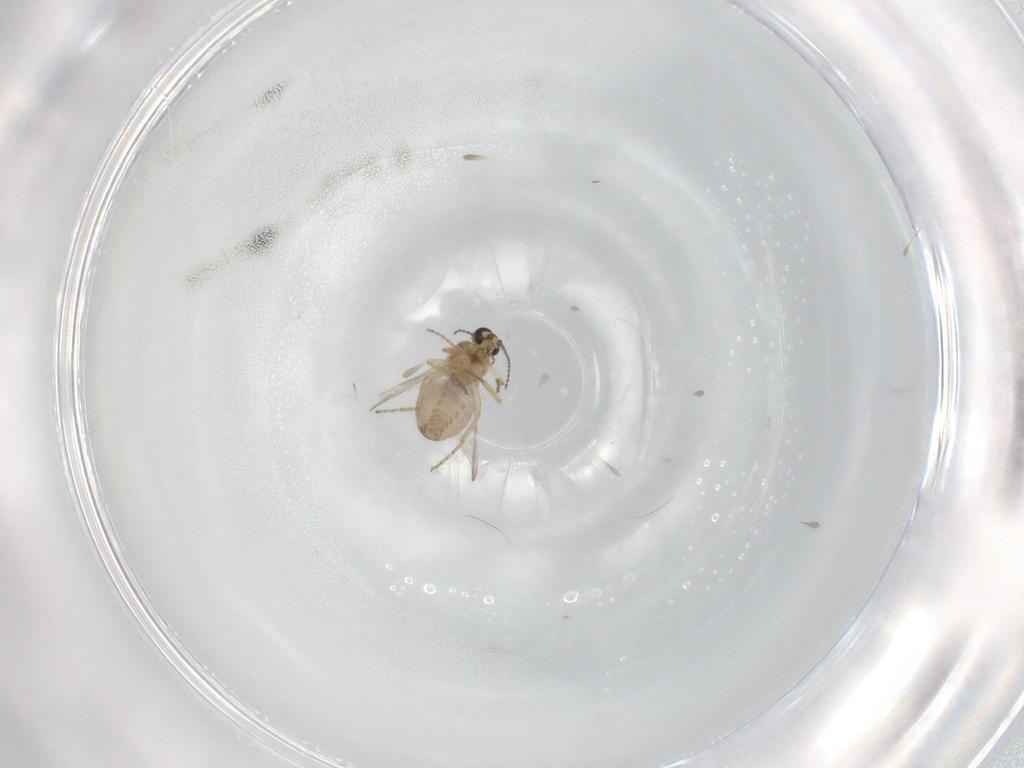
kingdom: Animalia
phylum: Arthropoda
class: Insecta
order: Diptera
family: Ceratopogonidae
